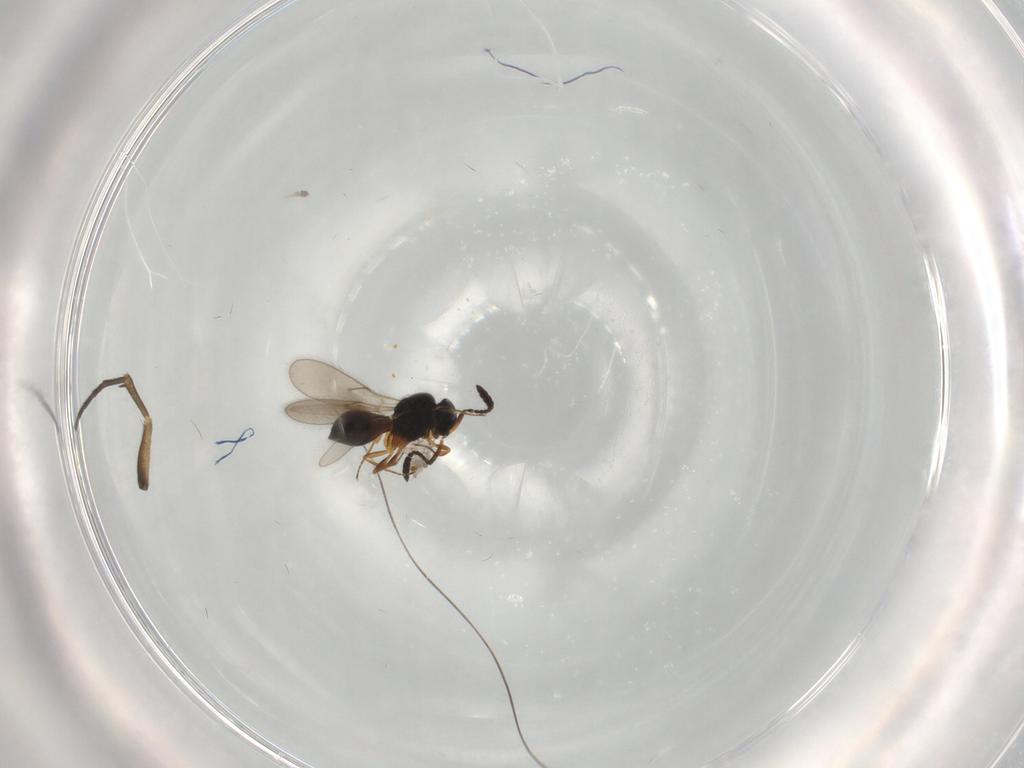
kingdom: Animalia
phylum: Arthropoda
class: Insecta
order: Hymenoptera
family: Scelionidae
